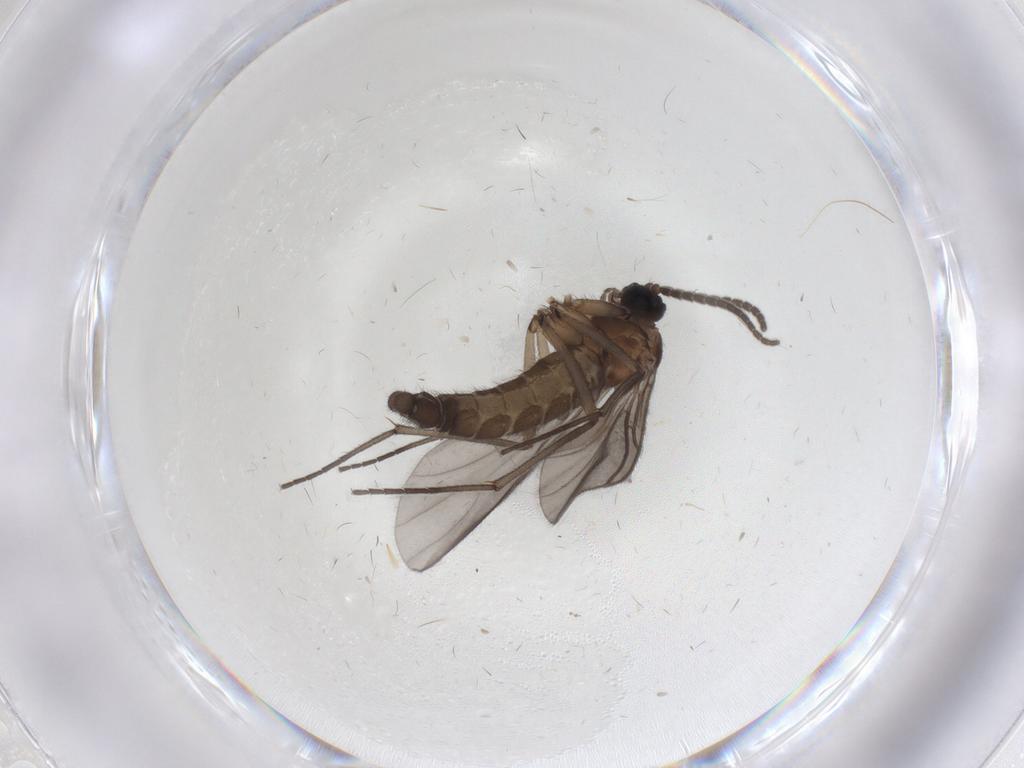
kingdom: Animalia
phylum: Arthropoda
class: Insecta
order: Diptera
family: Sciaridae
